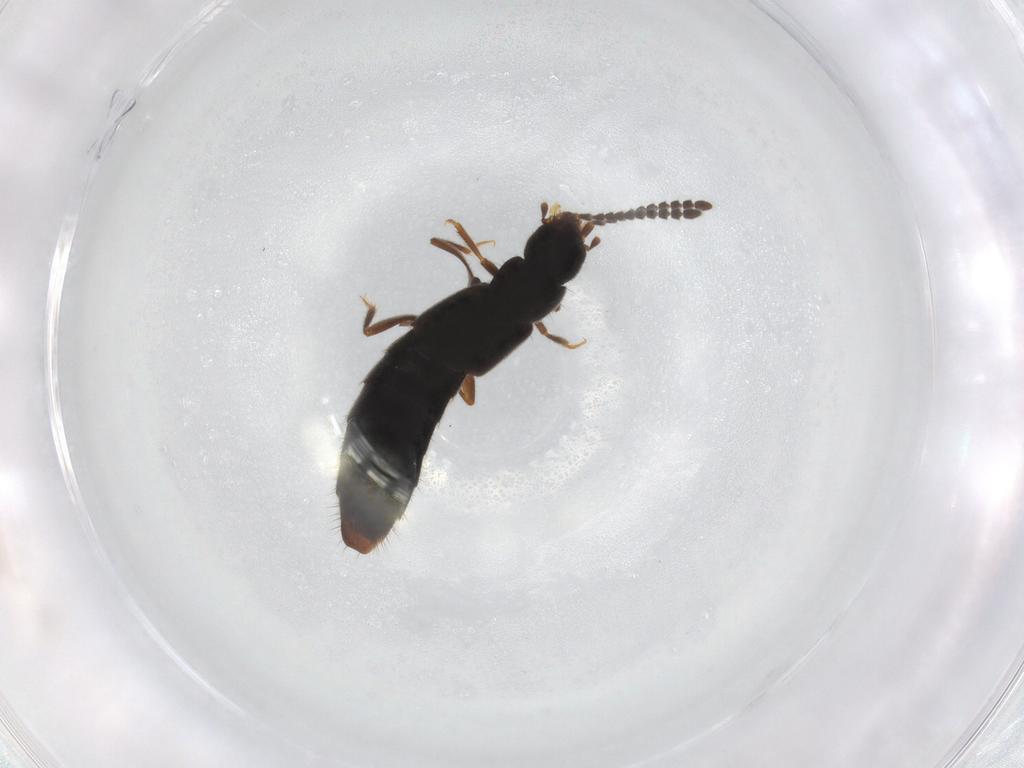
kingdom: Animalia
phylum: Arthropoda
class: Insecta
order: Coleoptera
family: Staphylinidae
